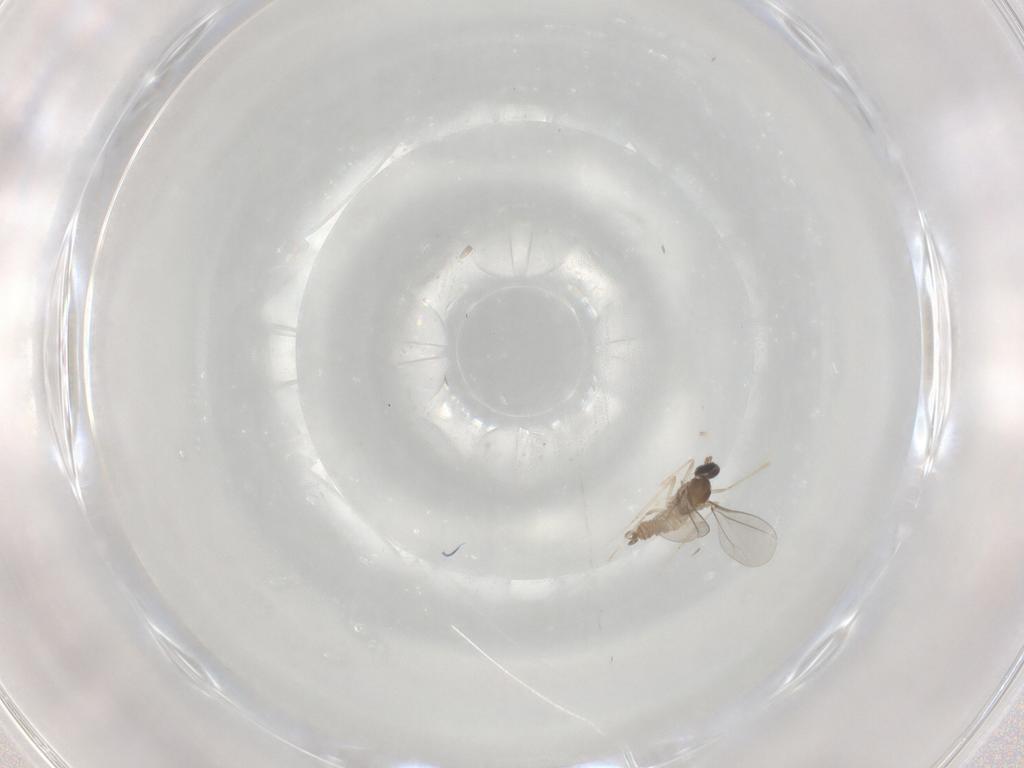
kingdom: Animalia
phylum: Arthropoda
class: Insecta
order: Diptera
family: Cecidomyiidae
